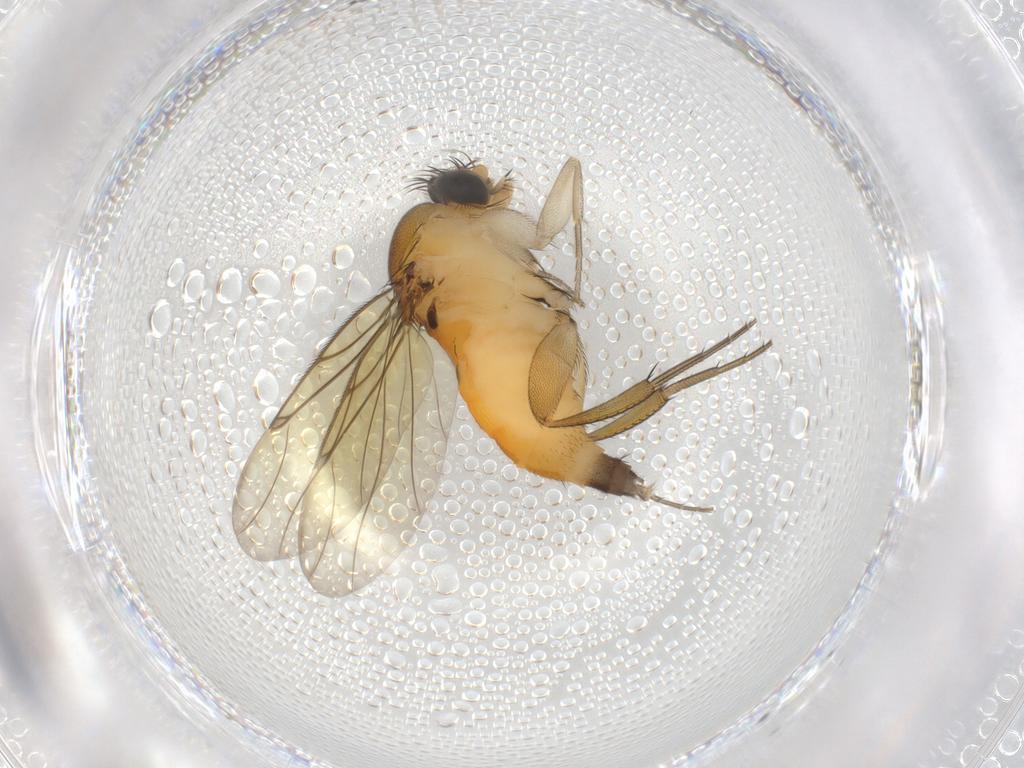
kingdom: Animalia
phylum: Arthropoda
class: Insecta
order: Diptera
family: Phoridae
